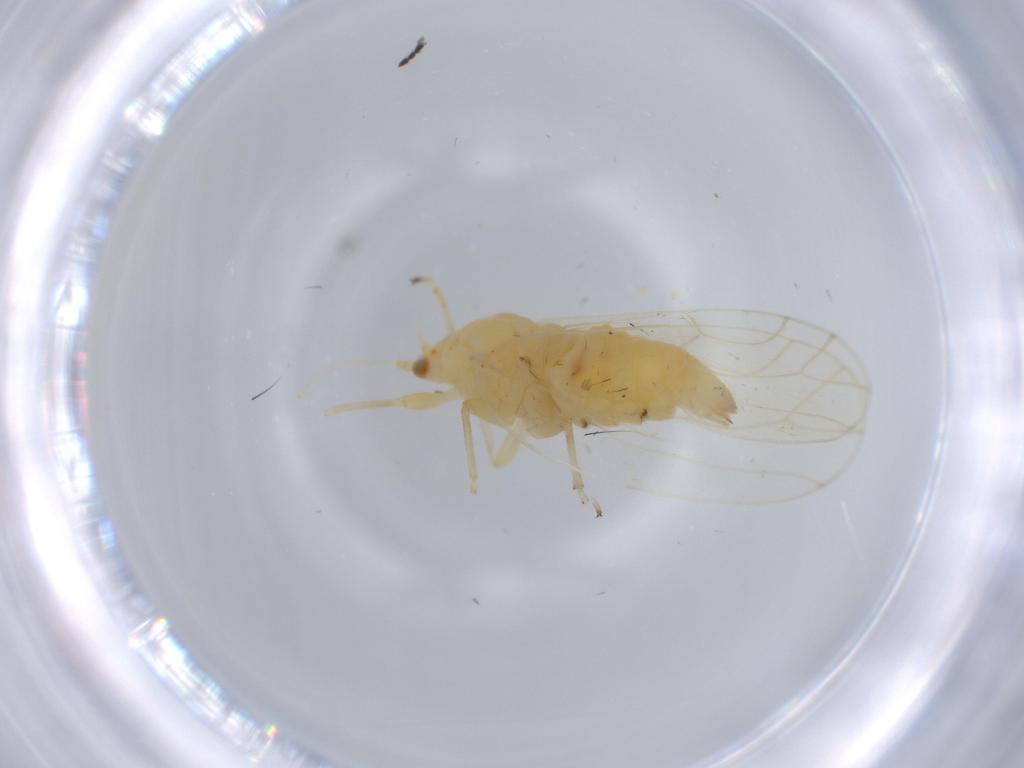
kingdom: Animalia
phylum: Arthropoda
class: Insecta
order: Hemiptera
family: Aphalaridae
